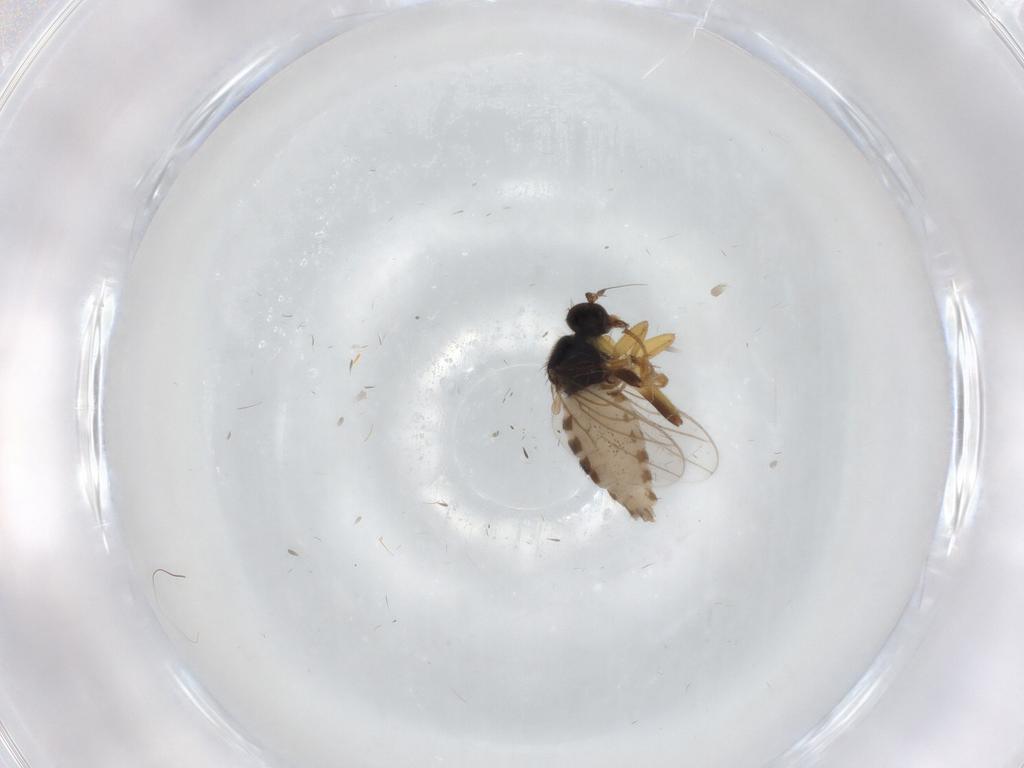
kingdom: Animalia
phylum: Arthropoda
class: Insecta
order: Diptera
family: Hybotidae
